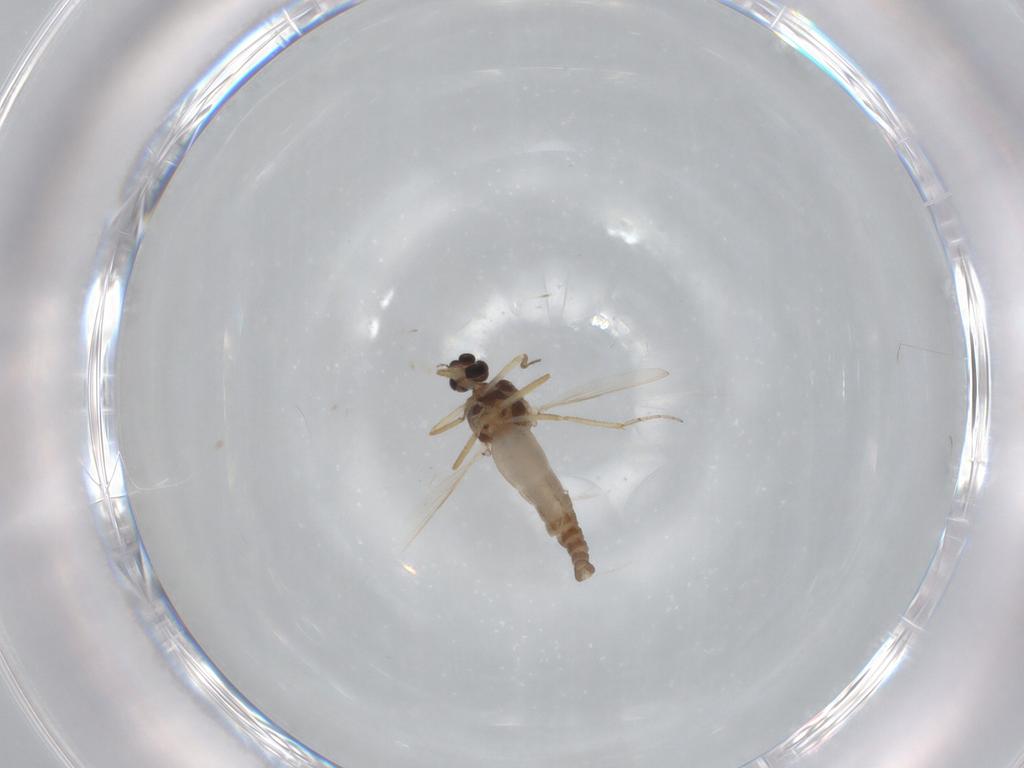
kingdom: Animalia
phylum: Arthropoda
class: Insecta
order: Diptera
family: Ceratopogonidae
